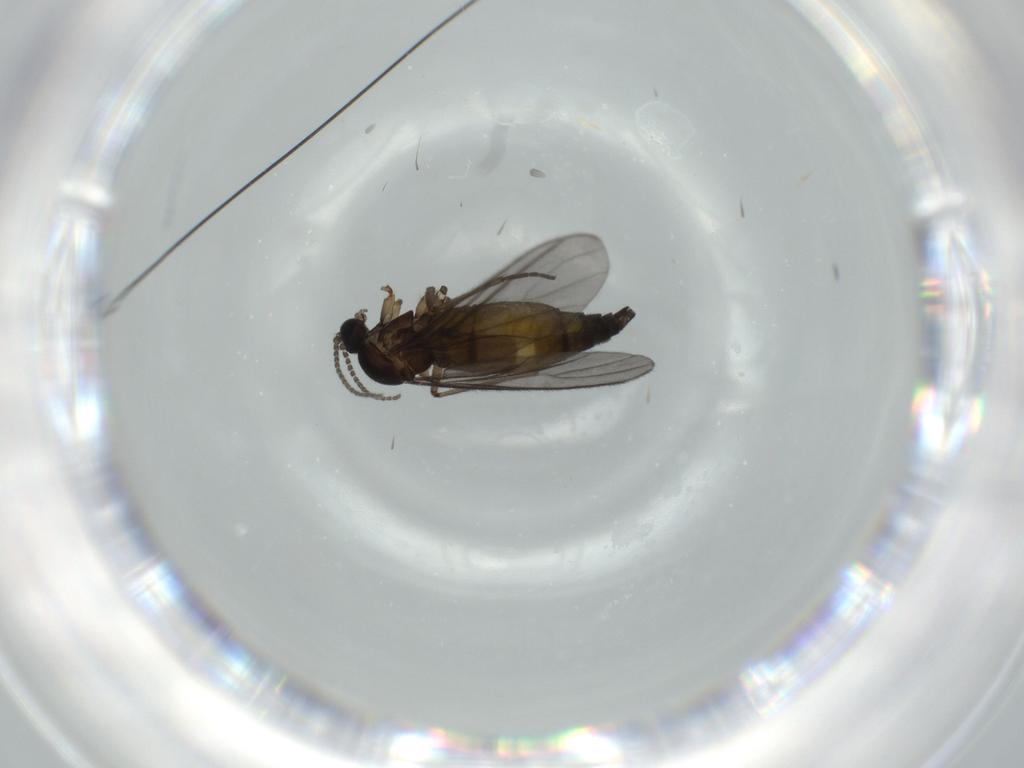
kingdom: Animalia
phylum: Arthropoda
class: Insecta
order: Diptera
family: Sciaridae
